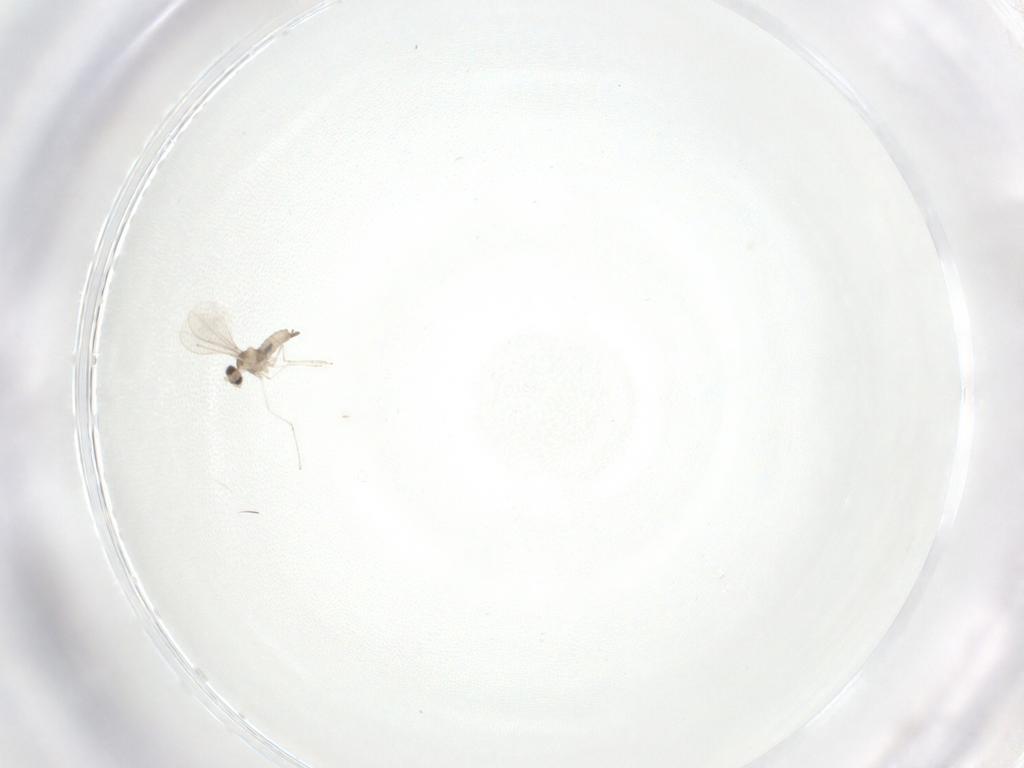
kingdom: Animalia
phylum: Arthropoda
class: Insecta
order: Diptera
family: Cecidomyiidae
